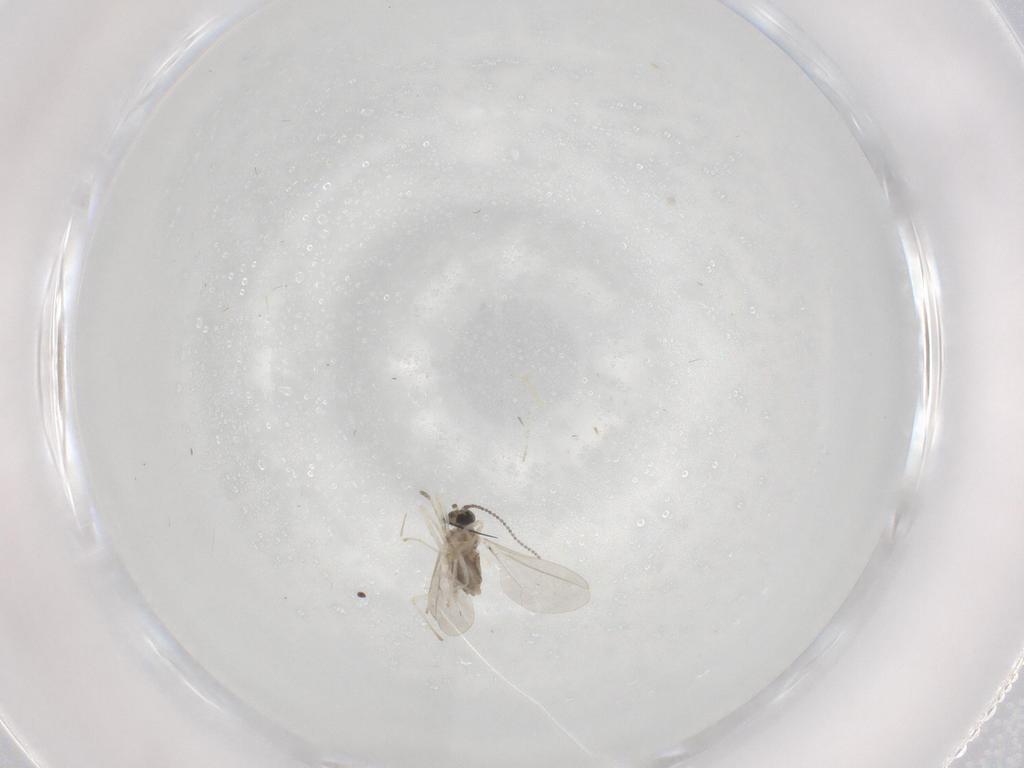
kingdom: Animalia
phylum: Arthropoda
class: Insecta
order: Diptera
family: Cecidomyiidae
